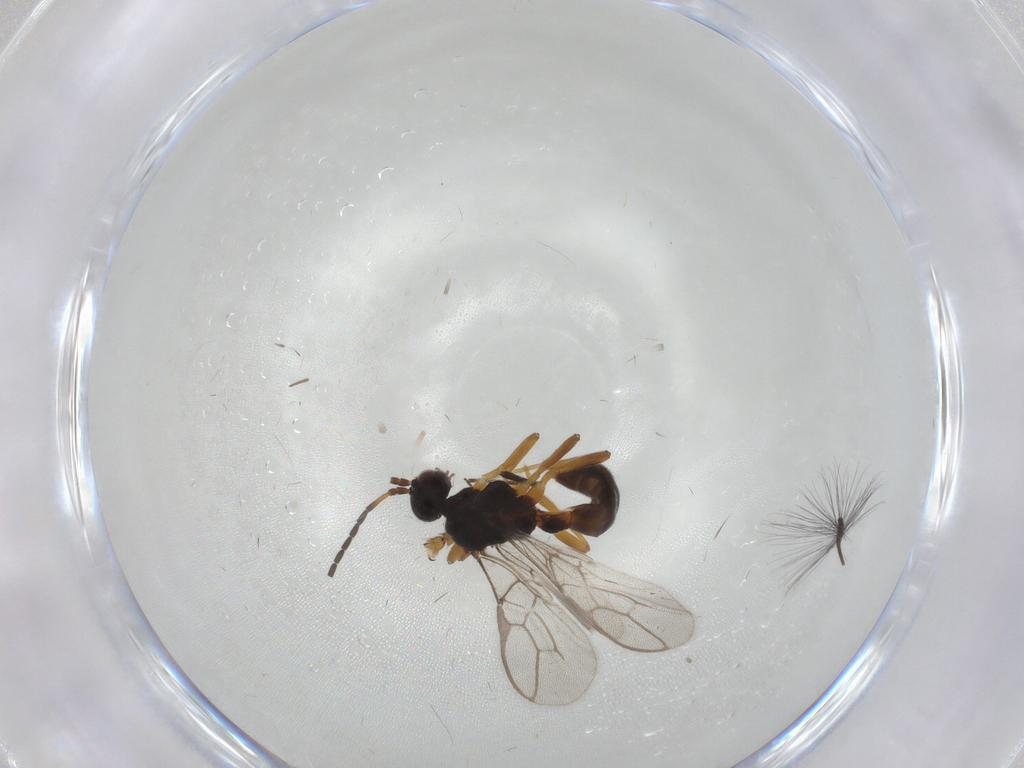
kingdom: Animalia
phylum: Arthropoda
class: Insecta
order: Hymenoptera
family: Braconidae
